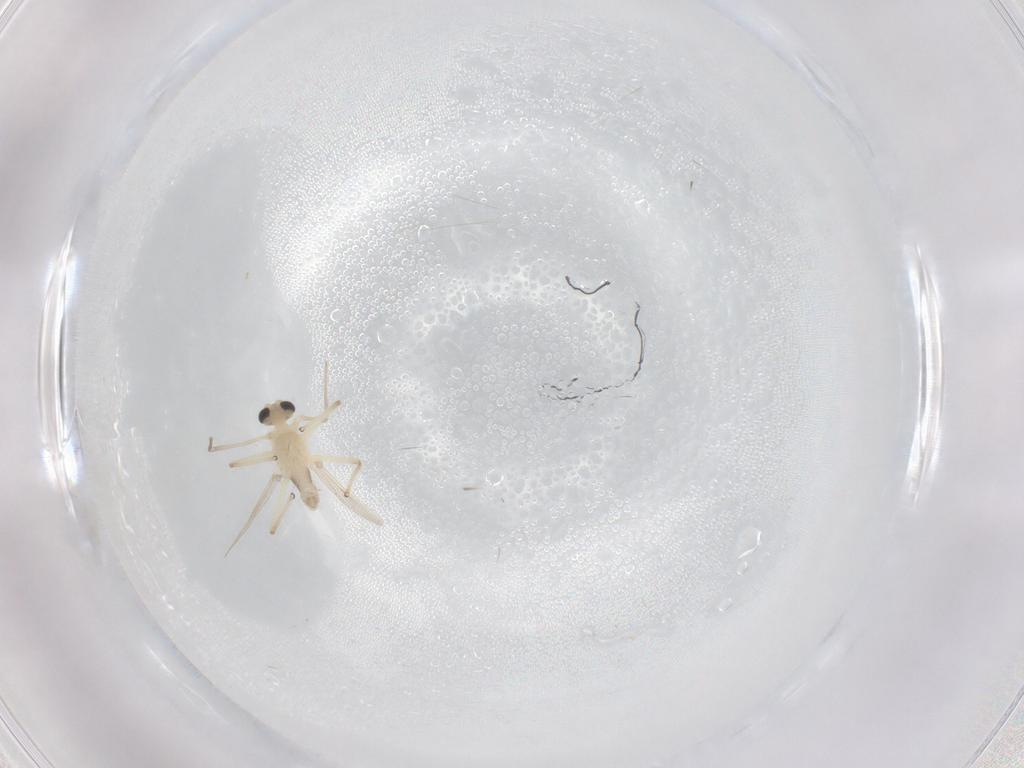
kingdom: Animalia
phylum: Arthropoda
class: Insecta
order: Diptera
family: Chironomidae
